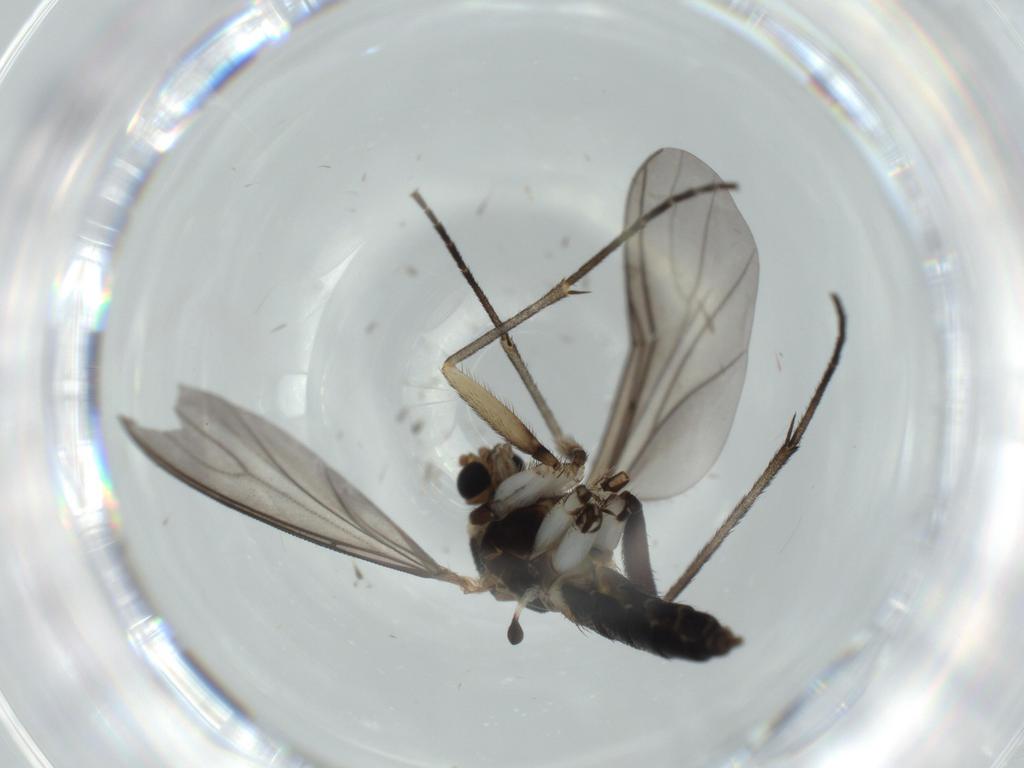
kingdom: Animalia
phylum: Arthropoda
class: Insecta
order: Diptera
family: Sciaridae
